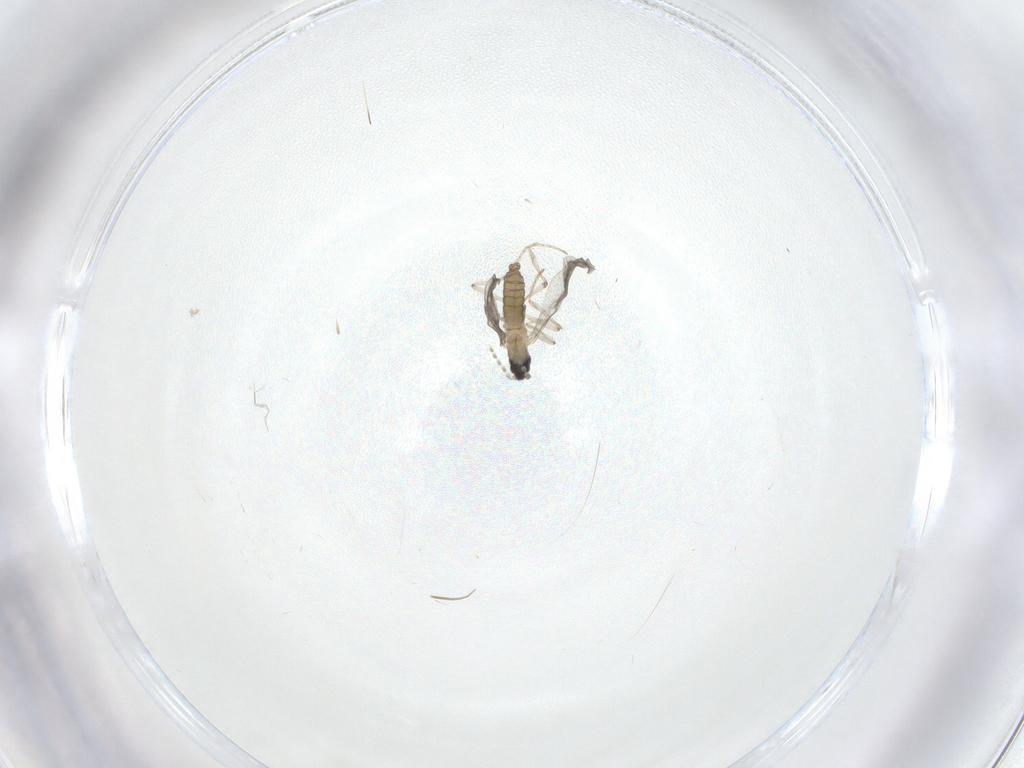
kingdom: Animalia
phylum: Arthropoda
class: Insecta
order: Diptera
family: Cecidomyiidae
